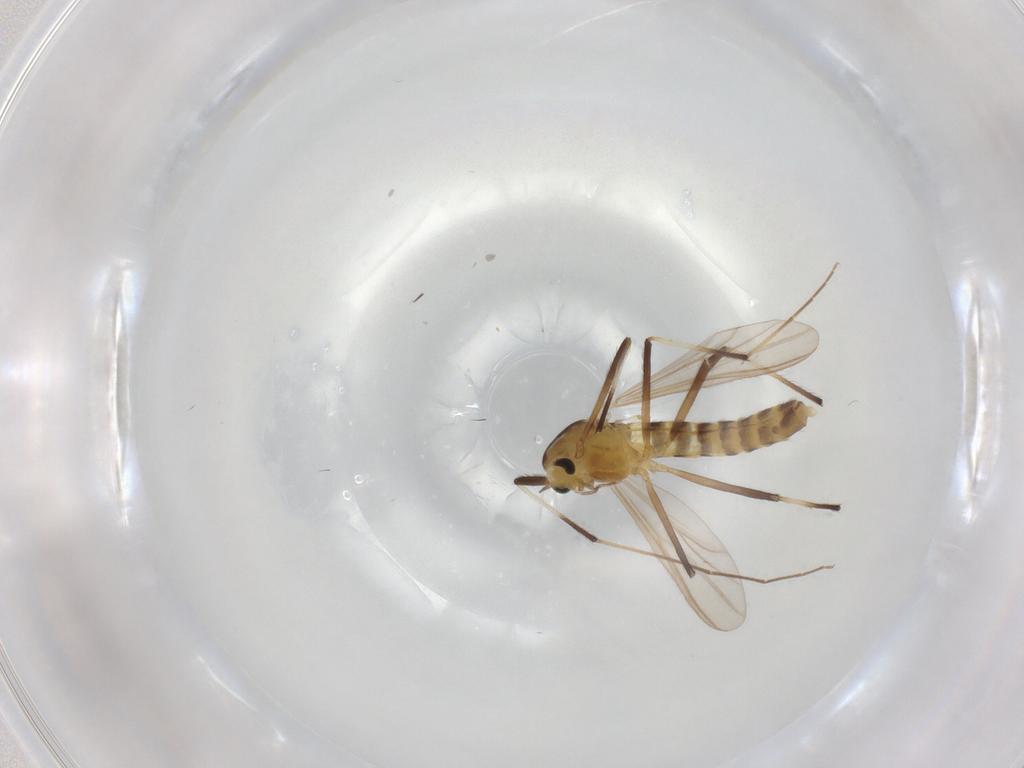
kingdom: Animalia
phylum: Arthropoda
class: Insecta
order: Diptera
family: Chironomidae
